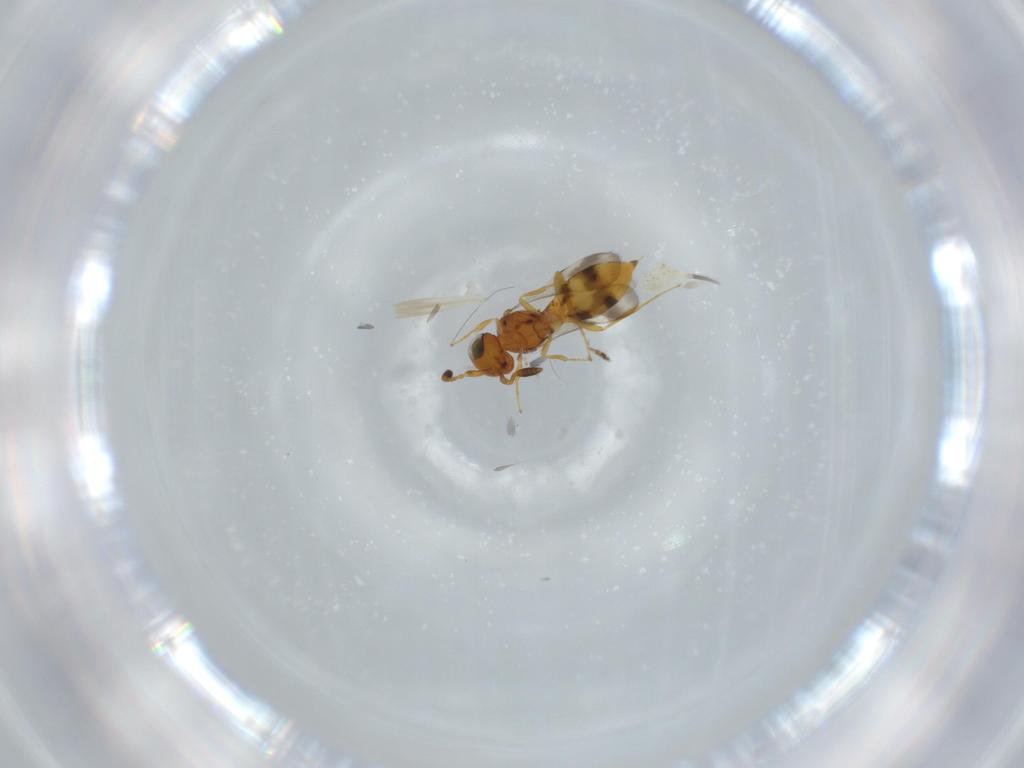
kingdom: Animalia
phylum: Arthropoda
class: Insecta
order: Hymenoptera
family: Scelionidae
